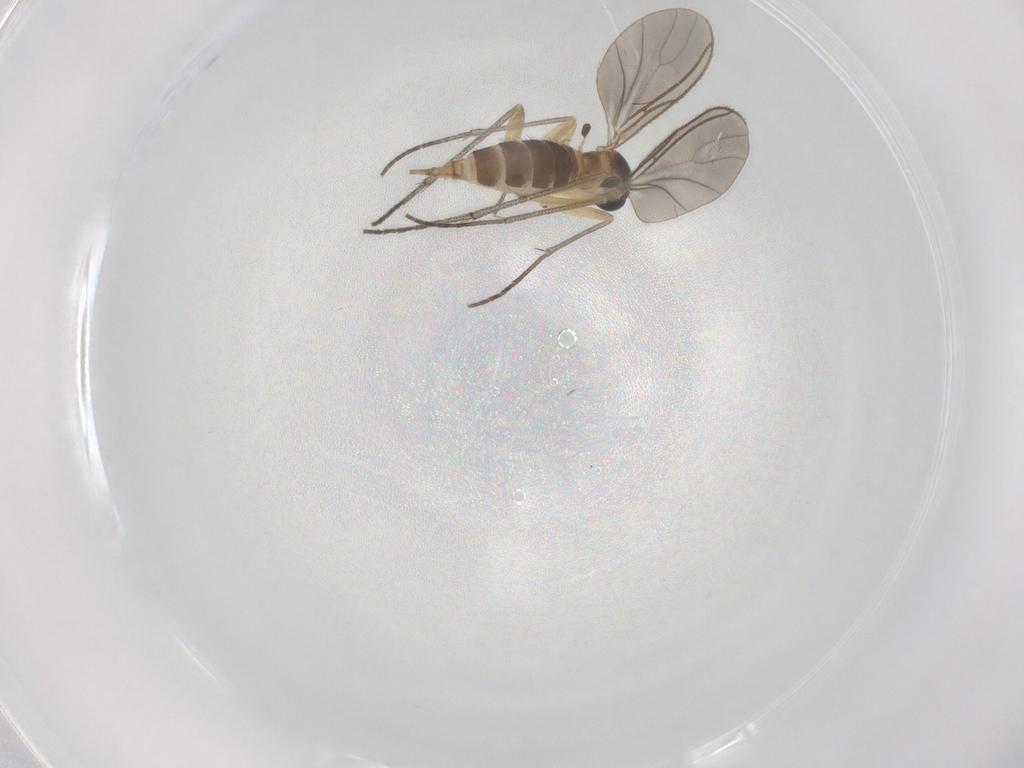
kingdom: Animalia
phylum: Arthropoda
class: Insecta
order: Diptera
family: Sciaridae
